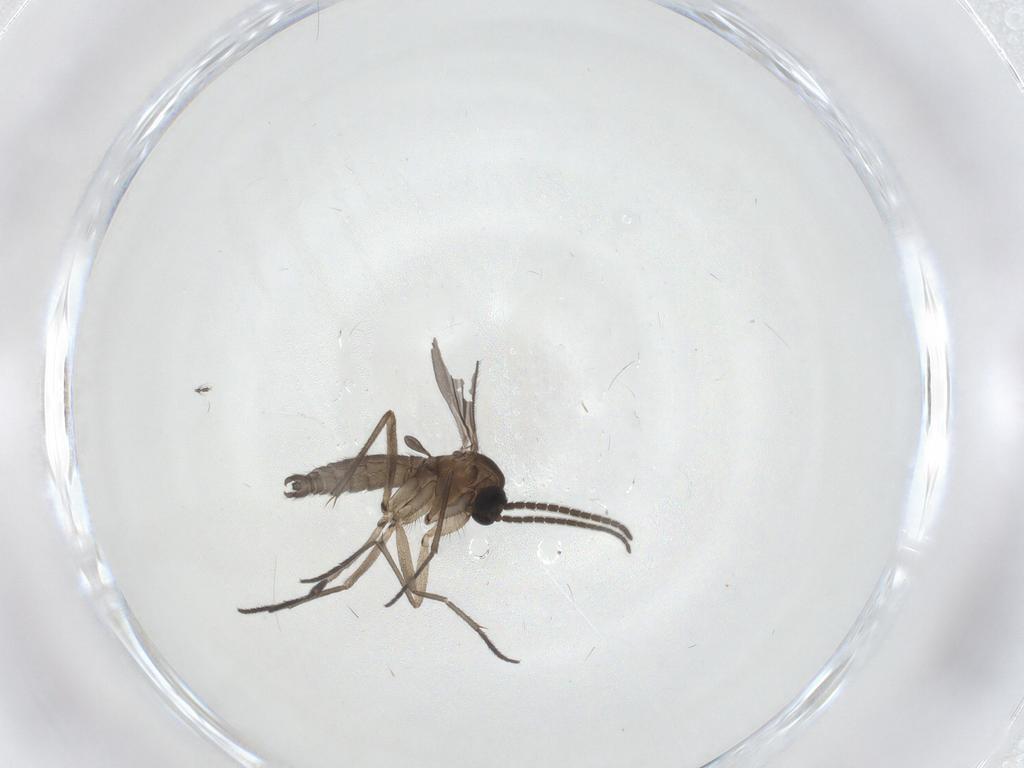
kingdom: Animalia
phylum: Arthropoda
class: Insecta
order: Diptera
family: Sciaridae
